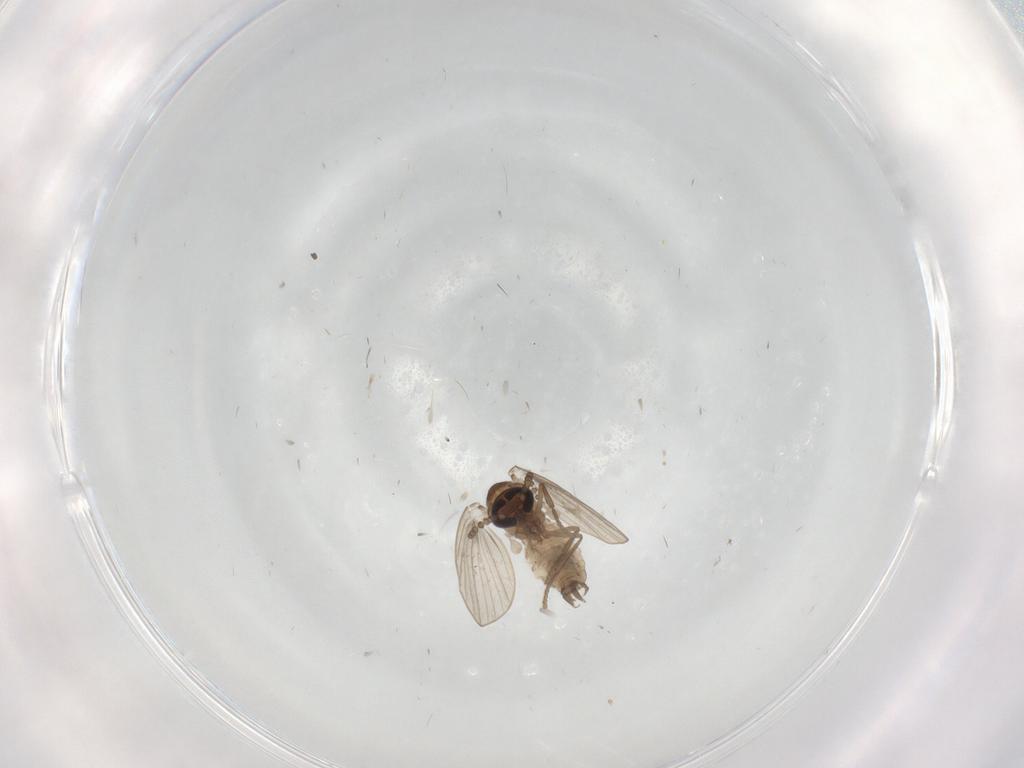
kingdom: Animalia
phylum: Arthropoda
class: Insecta
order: Diptera
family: Psychodidae
